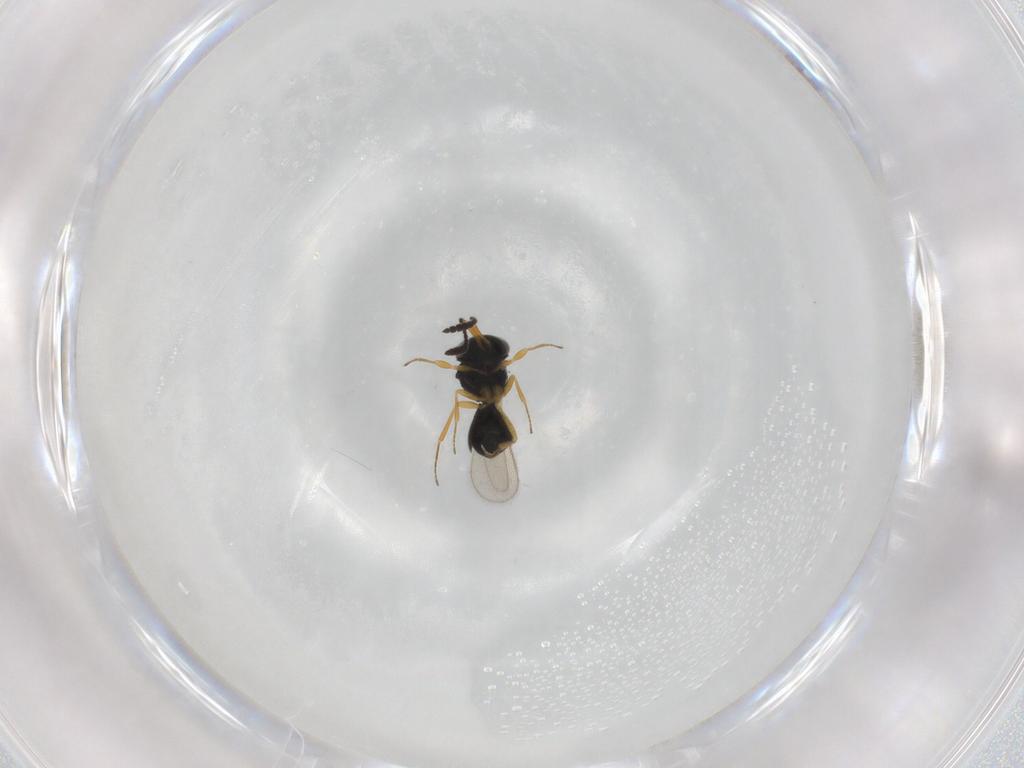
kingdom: Animalia
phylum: Arthropoda
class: Insecta
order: Hymenoptera
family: Scelionidae
